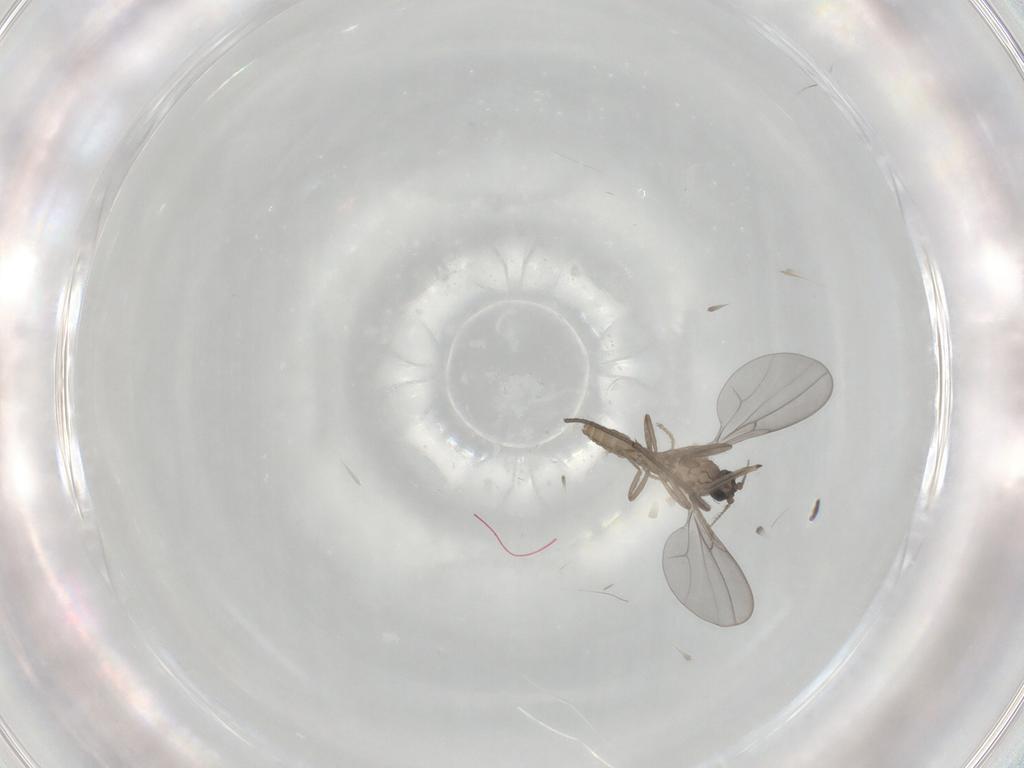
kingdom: Animalia
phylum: Arthropoda
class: Insecta
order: Diptera
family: Cecidomyiidae
